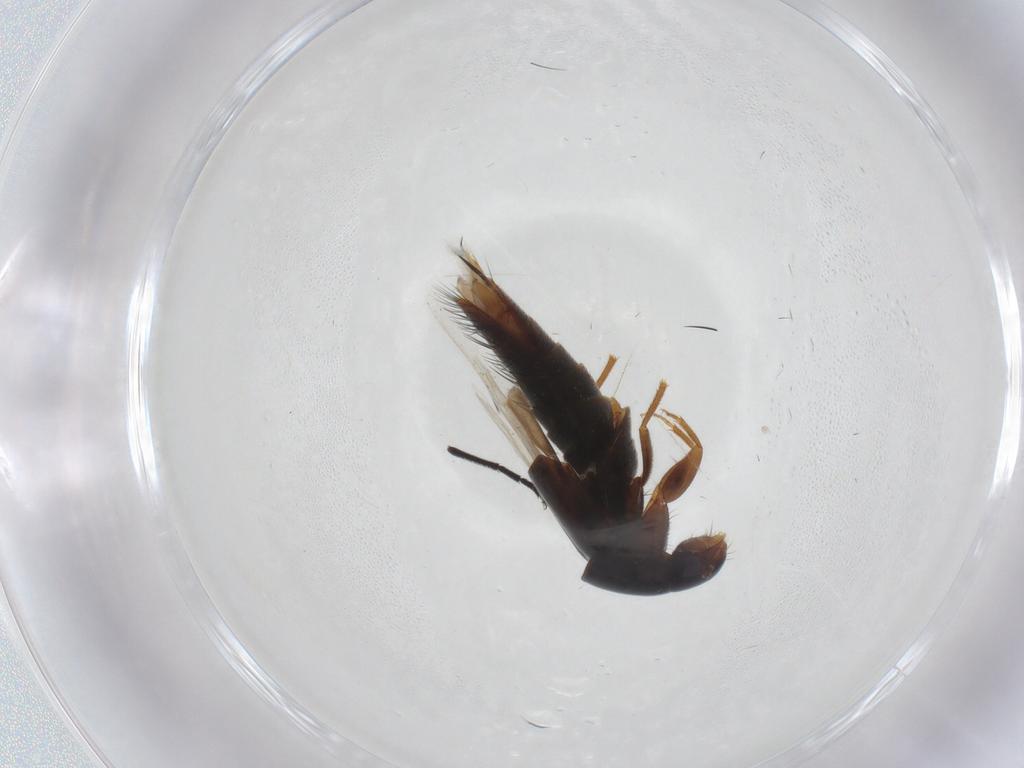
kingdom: Animalia
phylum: Arthropoda
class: Insecta
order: Coleoptera
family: Staphylinidae
